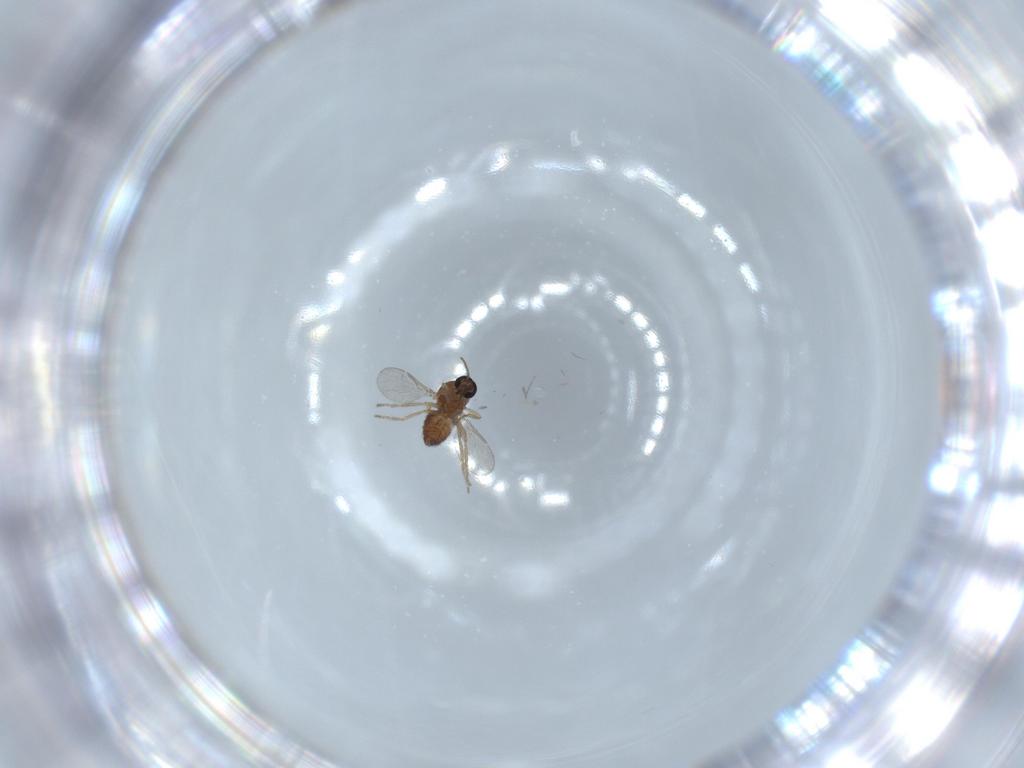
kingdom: Animalia
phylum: Arthropoda
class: Insecta
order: Diptera
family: Ceratopogonidae
